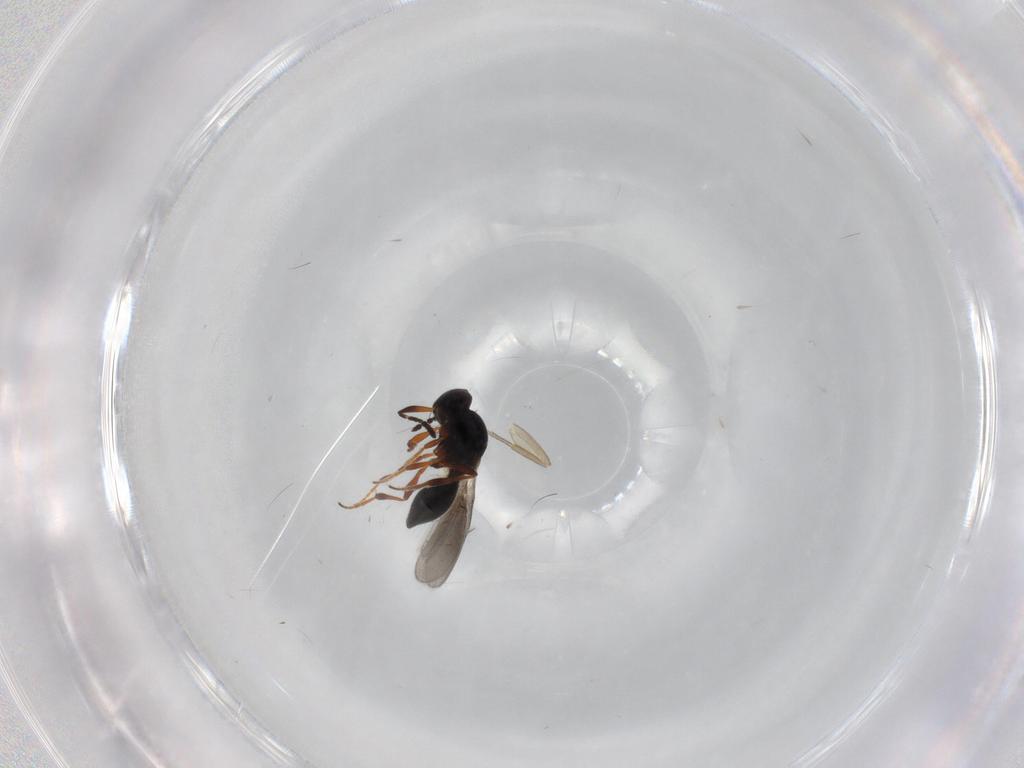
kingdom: Animalia
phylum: Arthropoda
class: Insecta
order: Hymenoptera
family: Platygastridae
